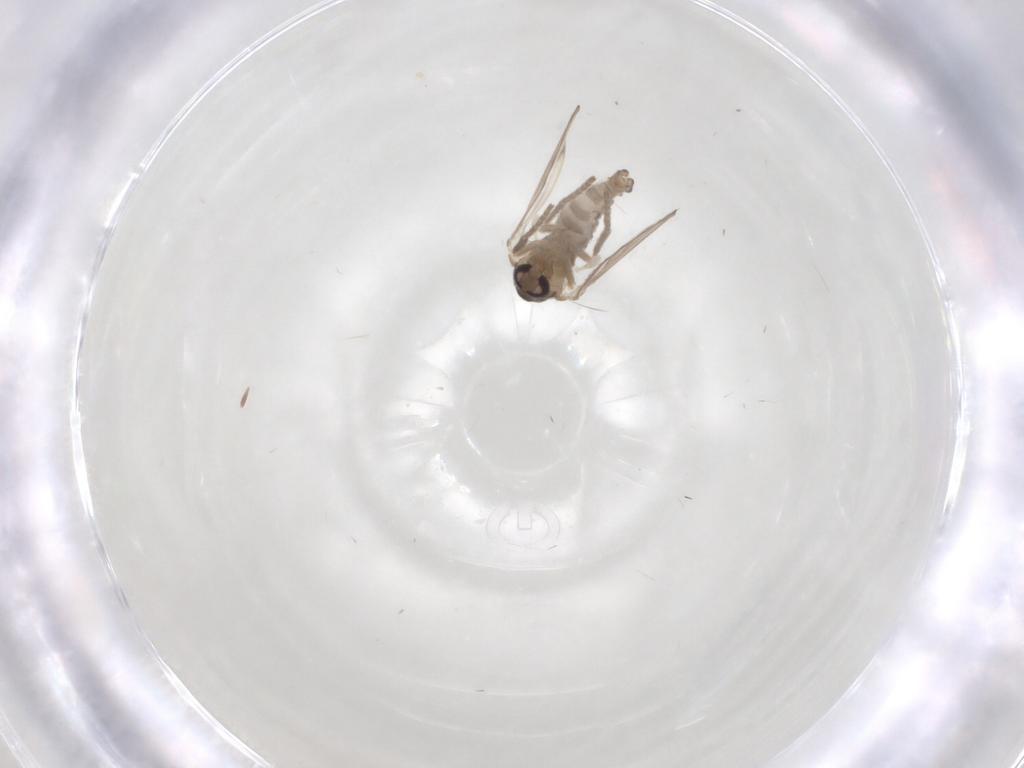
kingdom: Animalia
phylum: Arthropoda
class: Insecta
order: Diptera
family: Psychodidae
